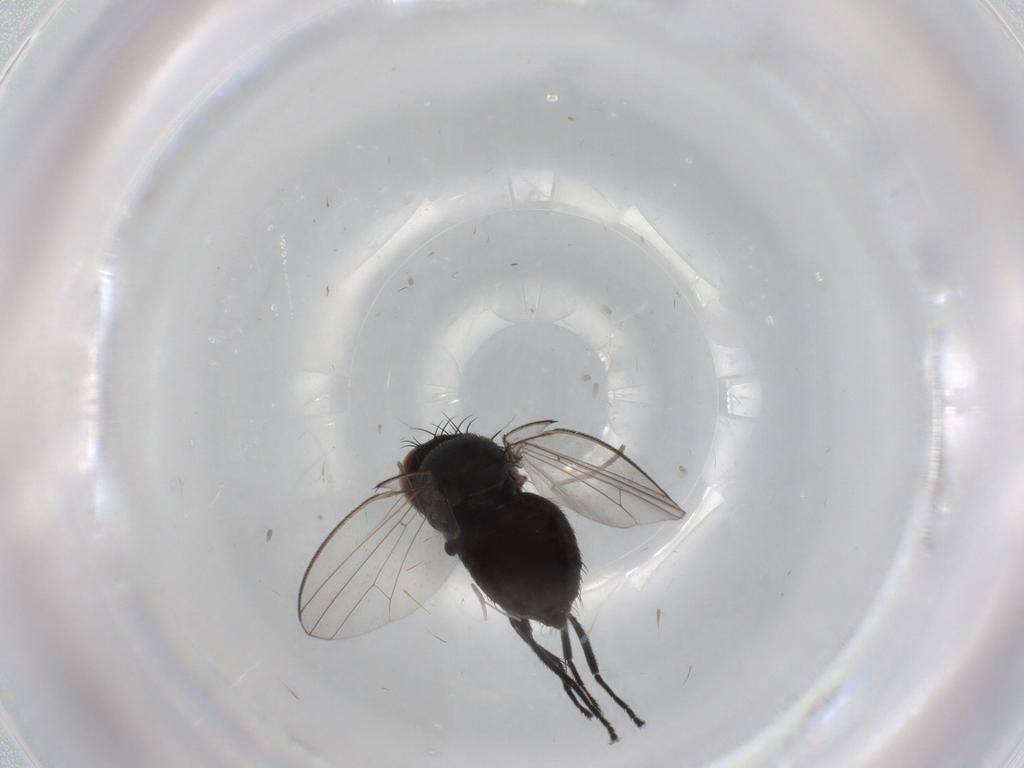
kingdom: Animalia
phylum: Arthropoda
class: Insecta
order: Diptera
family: Milichiidae
